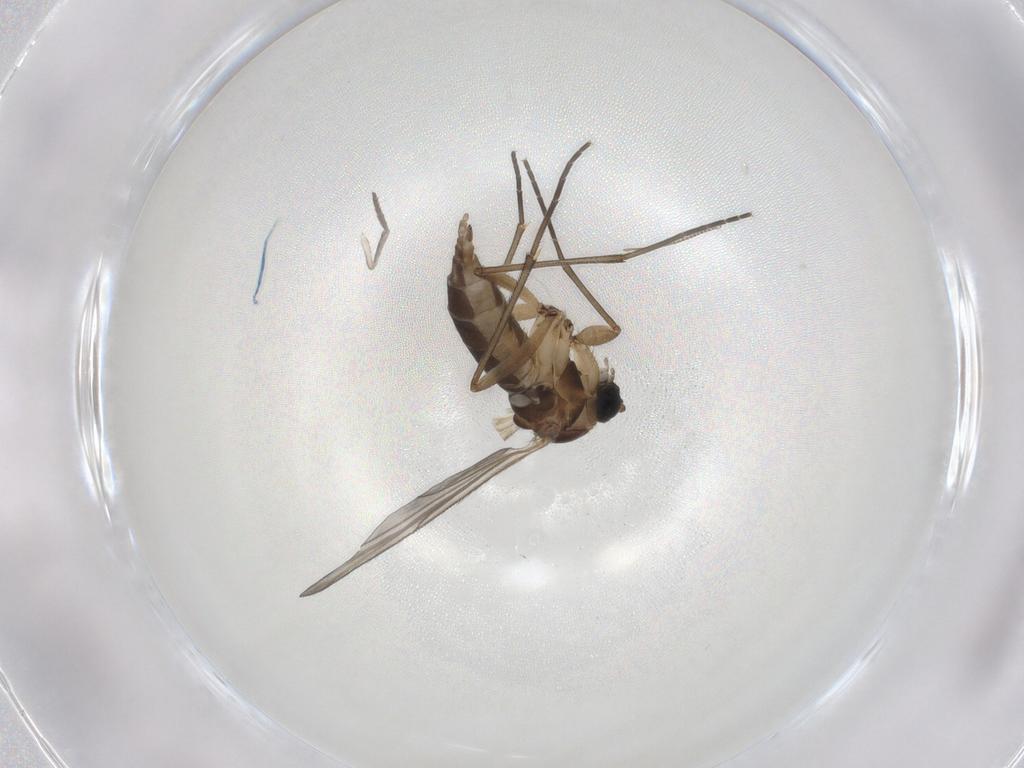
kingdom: Animalia
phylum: Arthropoda
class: Insecta
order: Diptera
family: Sciaridae
